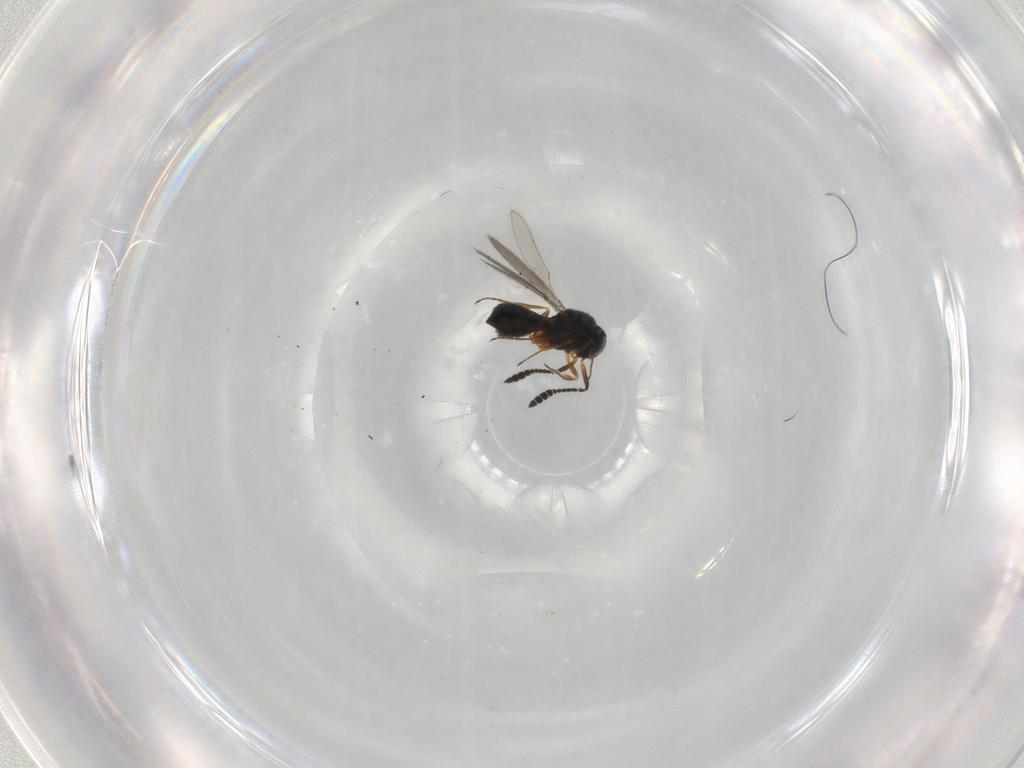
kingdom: Animalia
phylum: Arthropoda
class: Insecta
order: Hymenoptera
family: Scelionidae
